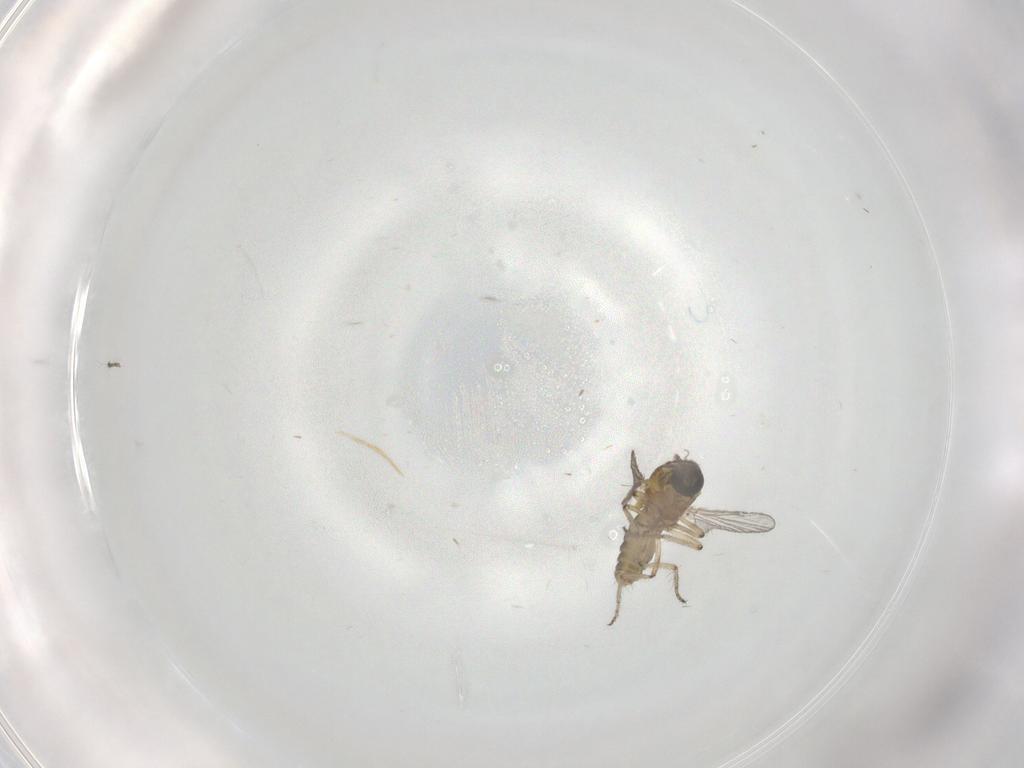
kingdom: Animalia
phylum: Arthropoda
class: Insecta
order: Diptera
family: Ceratopogonidae
